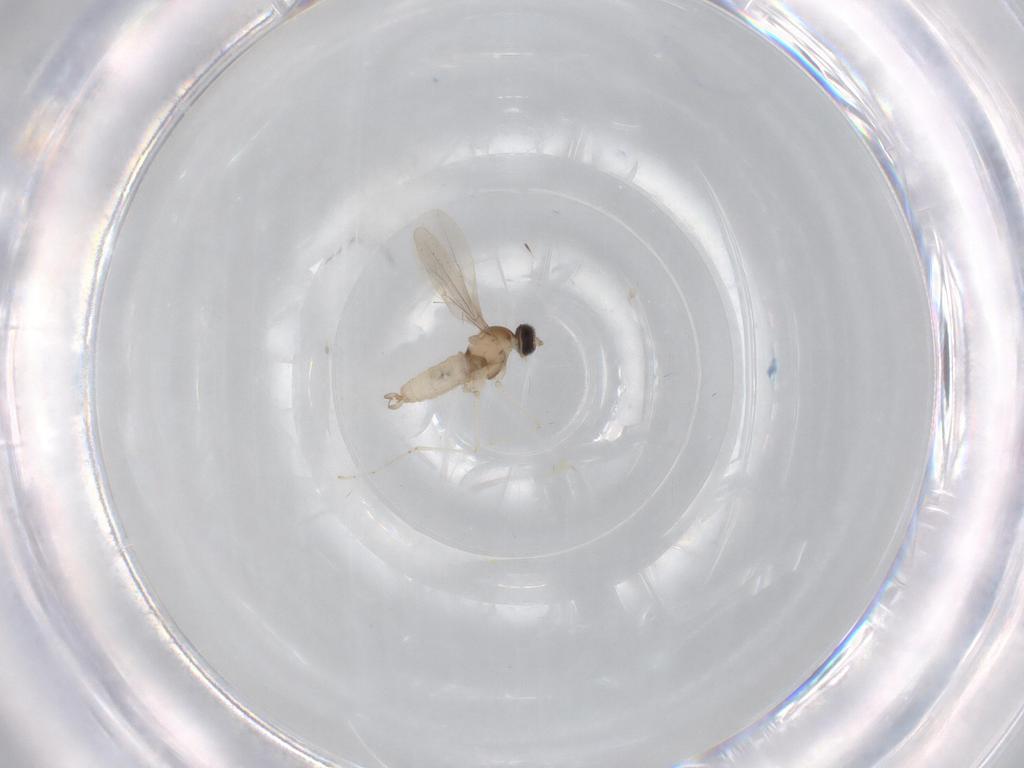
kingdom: Animalia
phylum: Arthropoda
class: Insecta
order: Diptera
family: Cecidomyiidae
